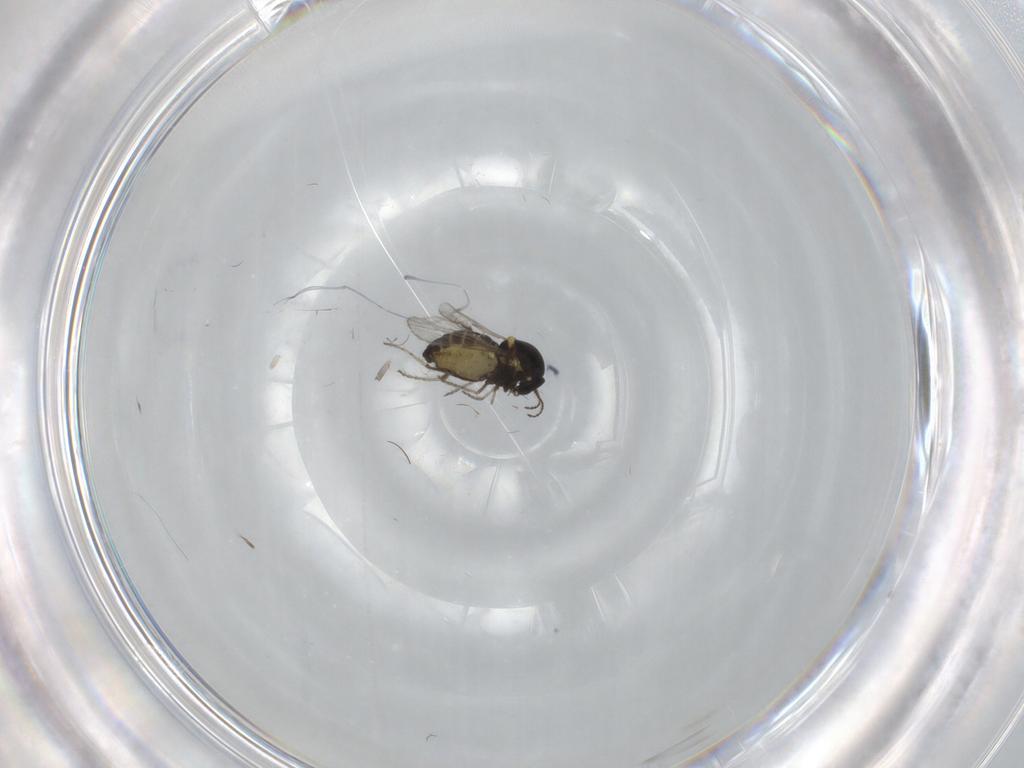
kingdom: Animalia
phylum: Arthropoda
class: Insecta
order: Diptera
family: Ceratopogonidae
